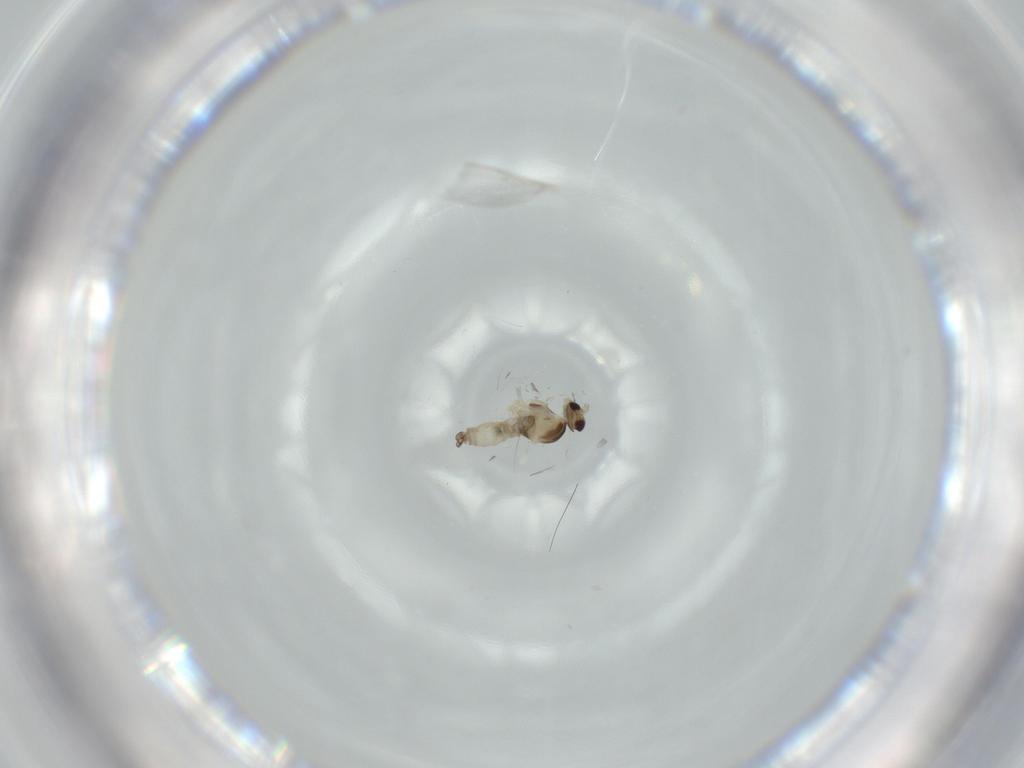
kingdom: Animalia
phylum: Arthropoda
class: Insecta
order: Diptera
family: Cecidomyiidae
